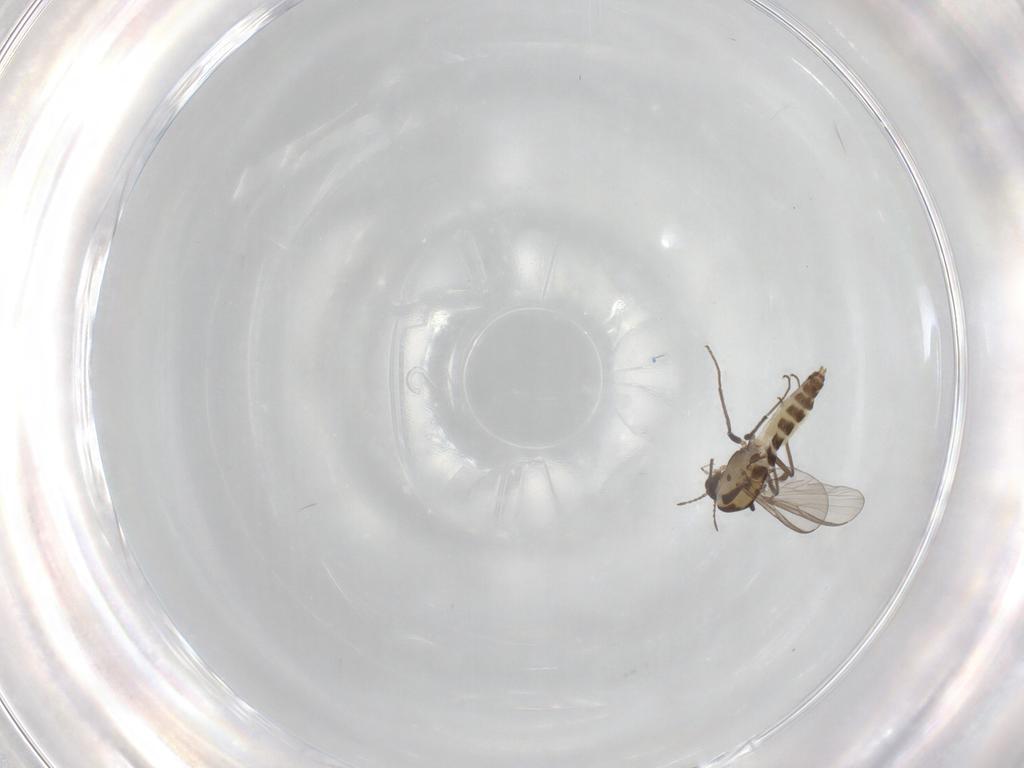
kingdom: Animalia
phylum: Arthropoda
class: Insecta
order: Diptera
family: Chironomidae
